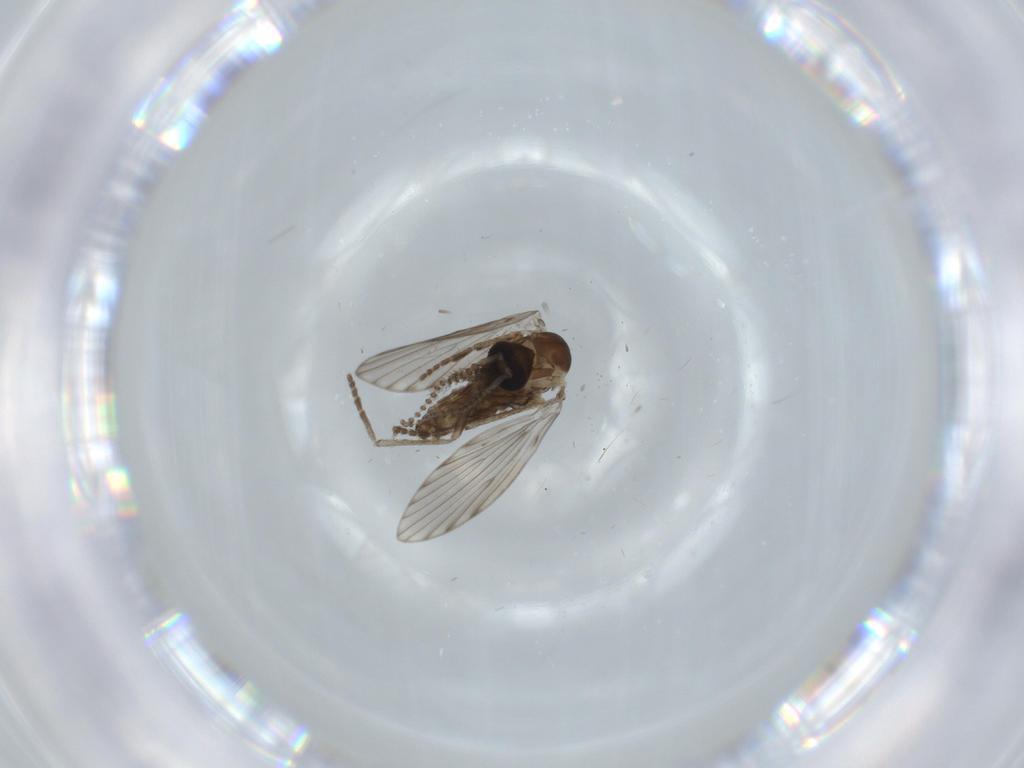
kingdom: Animalia
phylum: Arthropoda
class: Insecta
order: Diptera
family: Psychodidae
